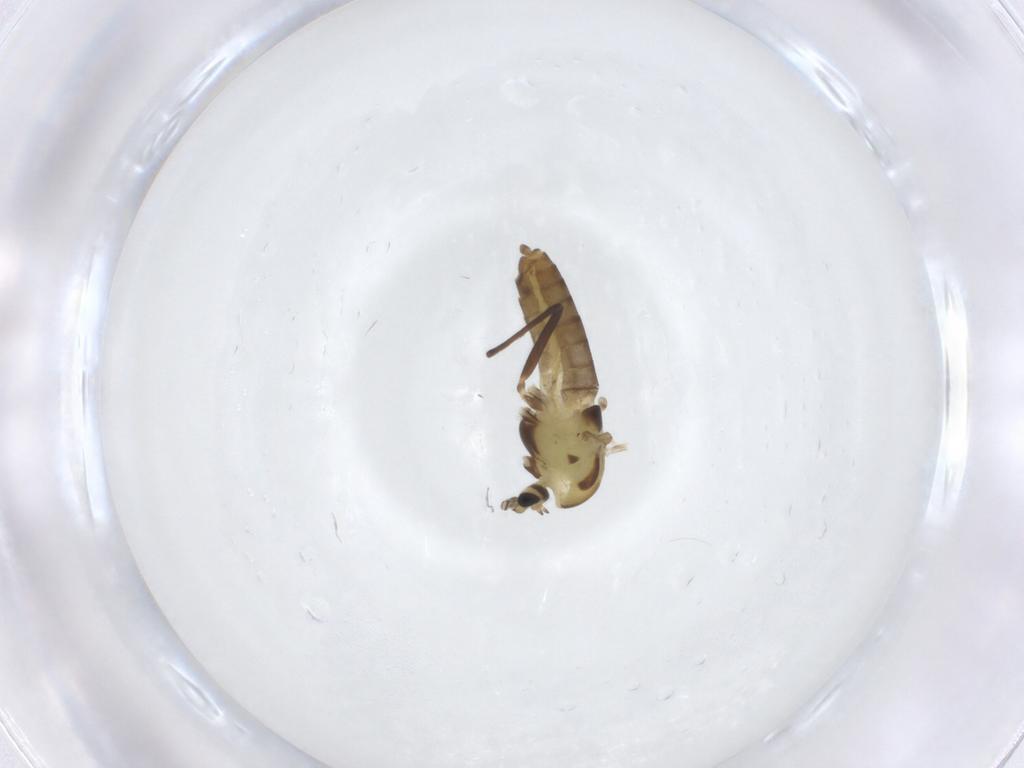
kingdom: Animalia
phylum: Arthropoda
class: Insecta
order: Diptera
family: Chironomidae
